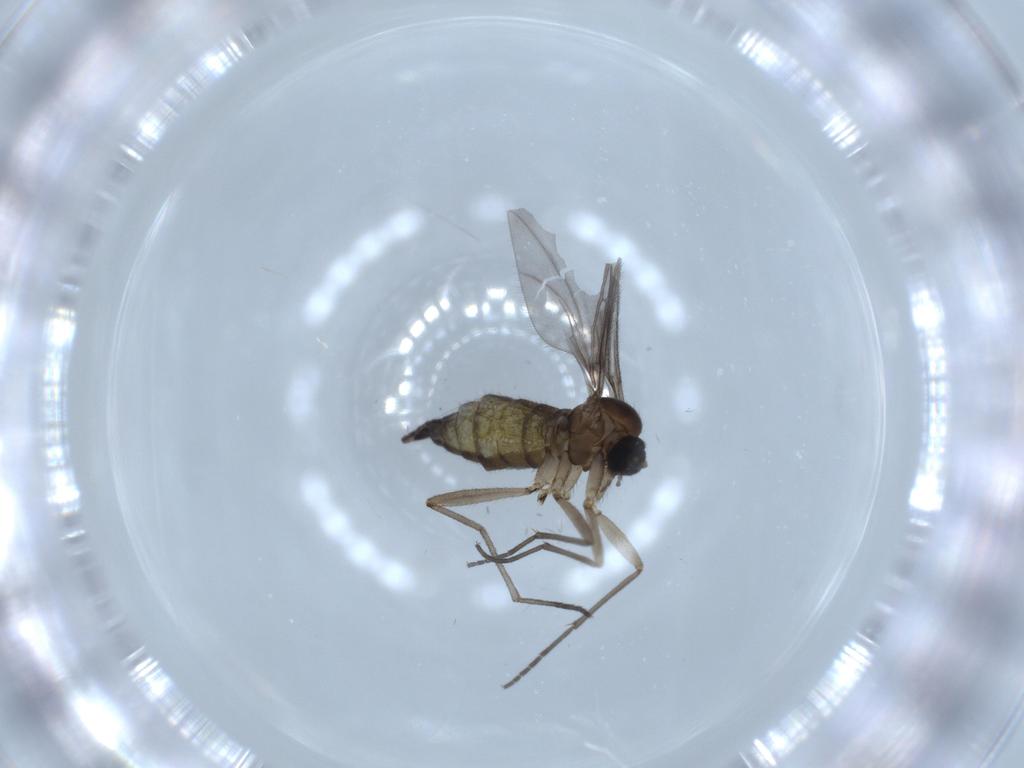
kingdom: Animalia
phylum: Arthropoda
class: Insecta
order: Diptera
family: Sciaridae
